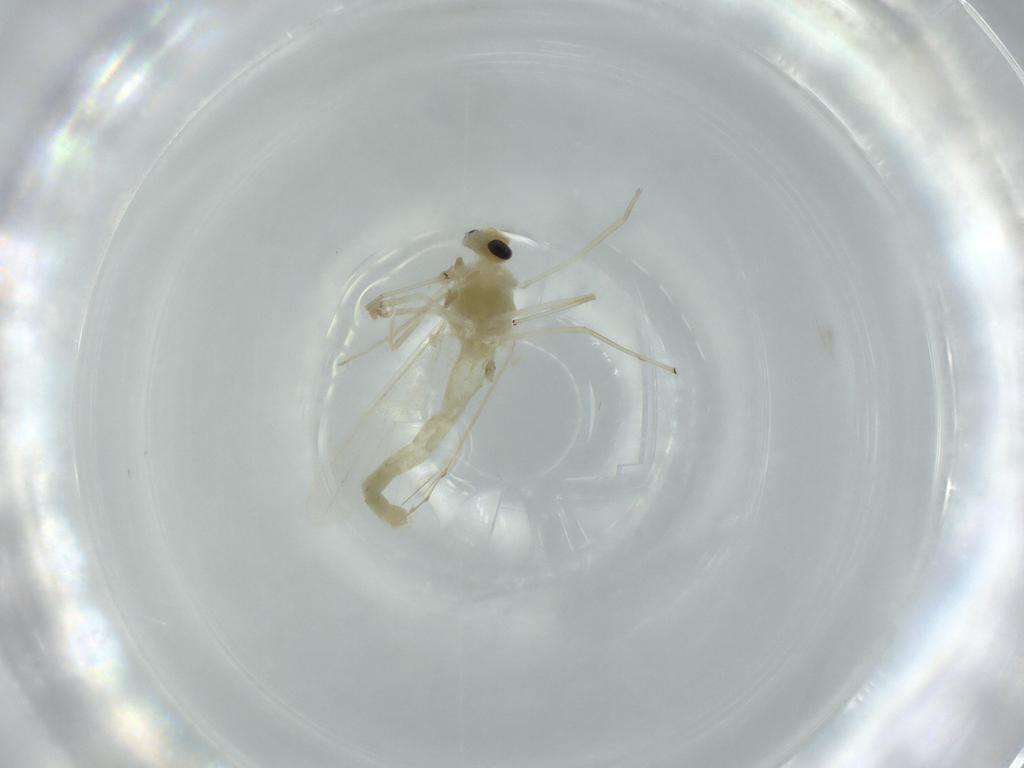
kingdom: Animalia
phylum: Arthropoda
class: Insecta
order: Diptera
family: Chironomidae
